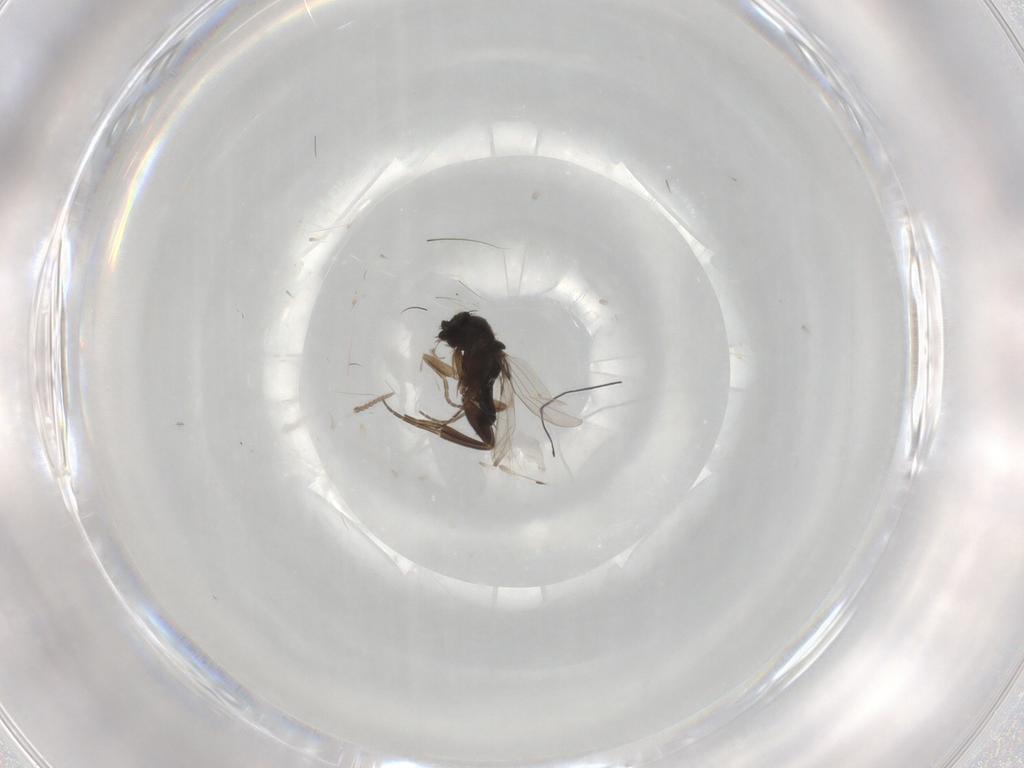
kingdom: Animalia
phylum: Arthropoda
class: Insecta
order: Diptera
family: Phoridae
